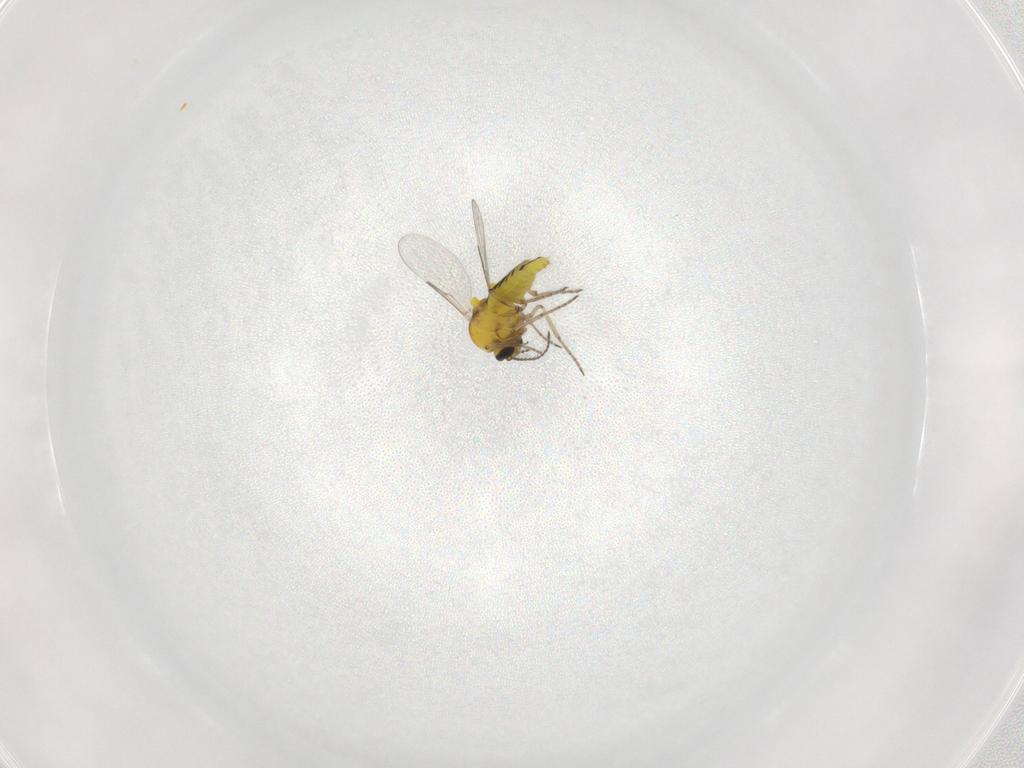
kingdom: Animalia
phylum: Arthropoda
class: Insecta
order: Diptera
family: Ceratopogonidae
